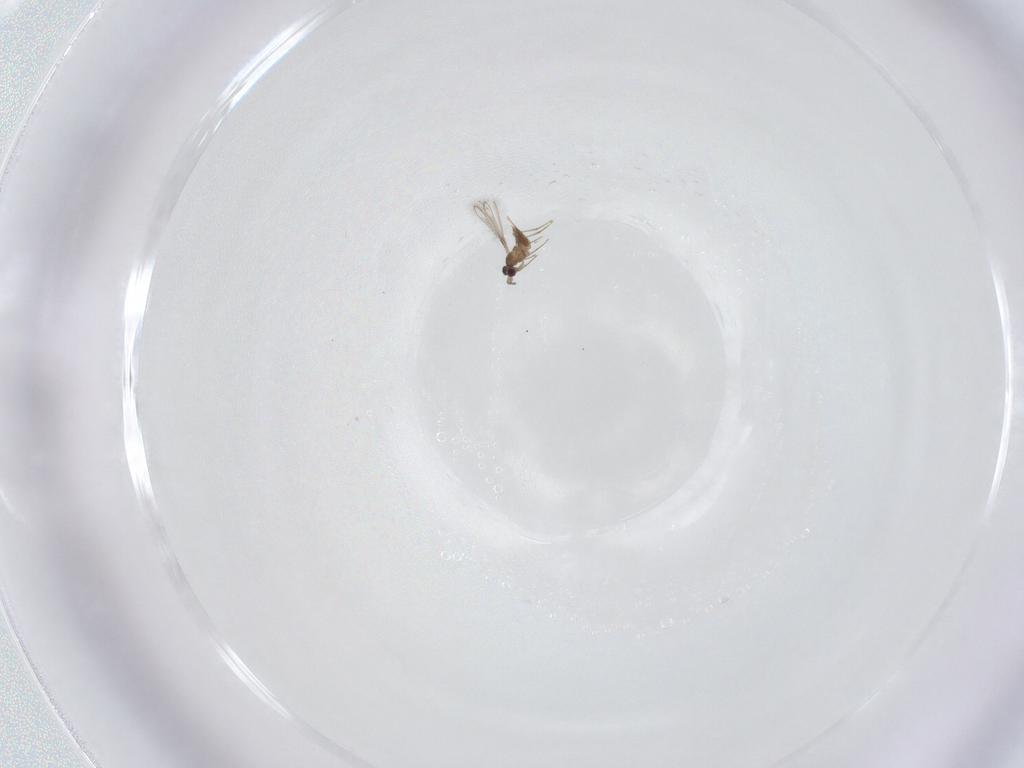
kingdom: Animalia
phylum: Arthropoda
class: Insecta
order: Hymenoptera
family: Mymaridae
